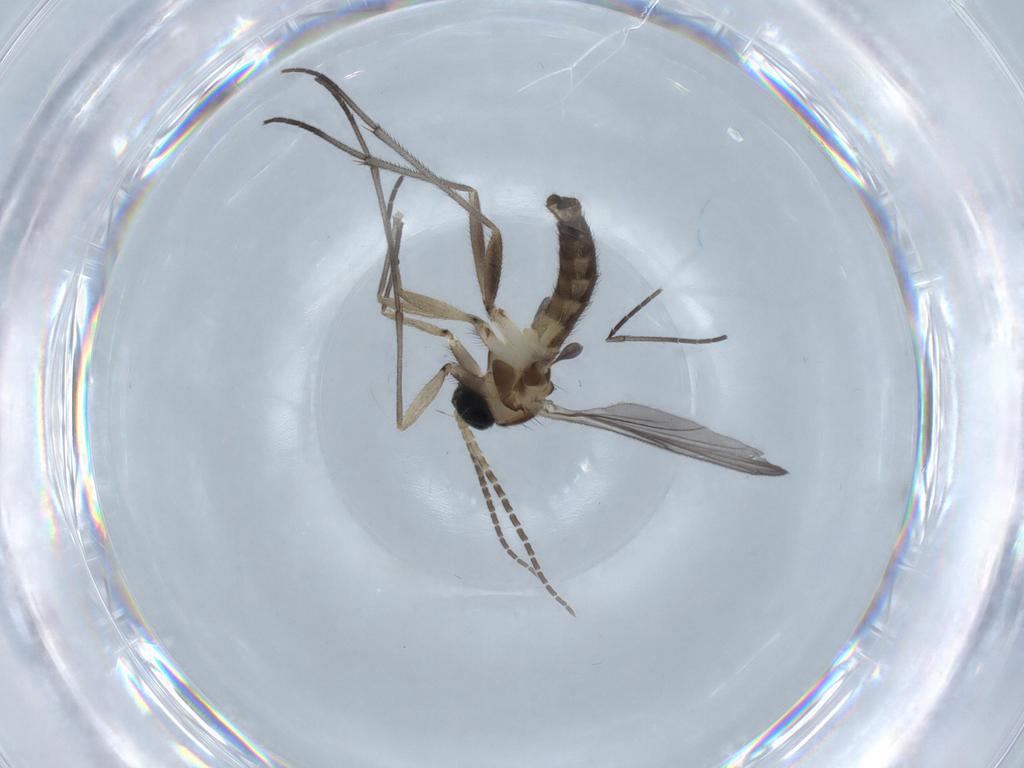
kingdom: Animalia
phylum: Arthropoda
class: Insecta
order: Diptera
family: Sciaridae
